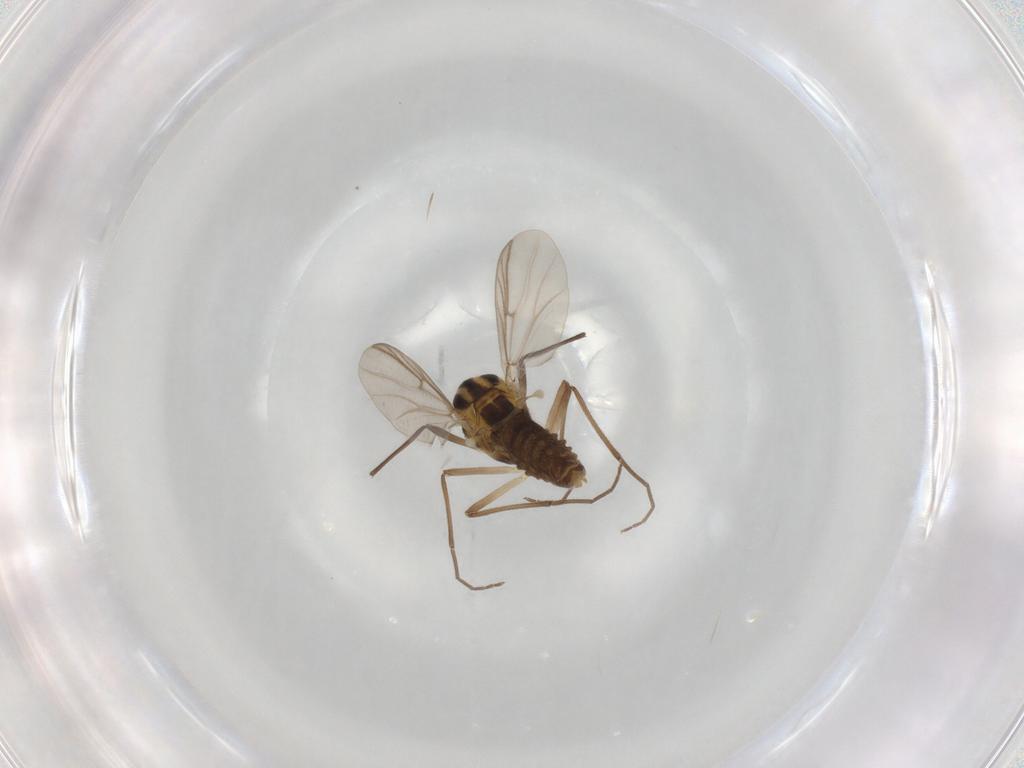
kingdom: Animalia
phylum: Arthropoda
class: Insecta
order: Diptera
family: Chironomidae
